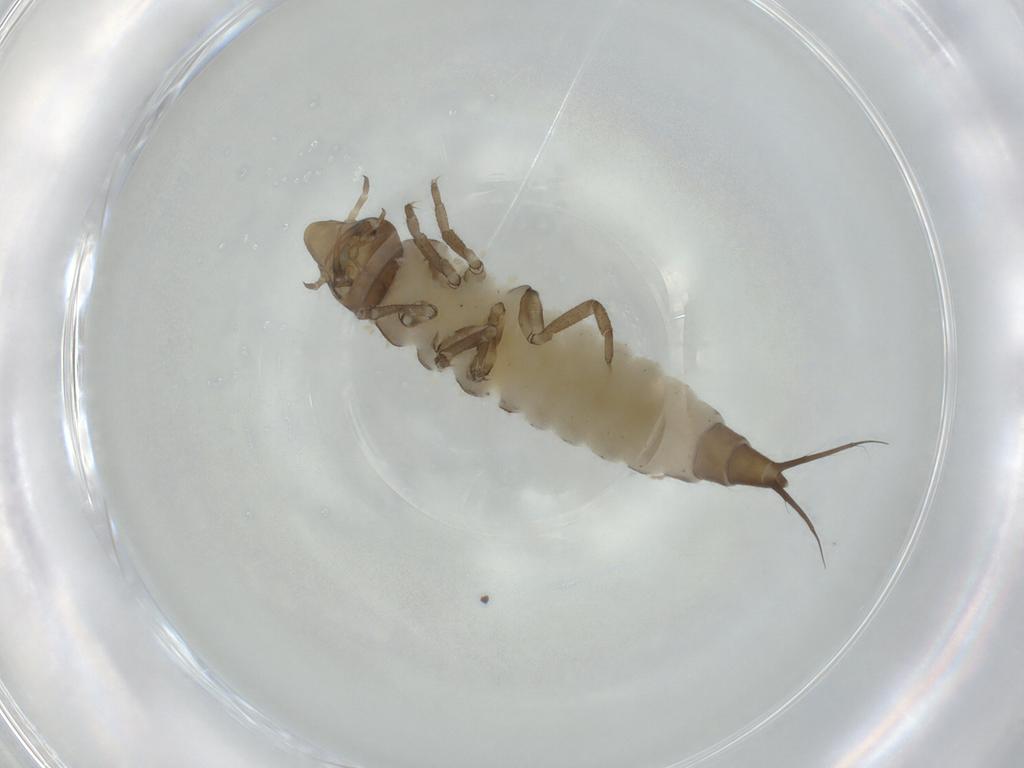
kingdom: Animalia
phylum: Arthropoda
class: Insecta
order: Coleoptera
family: Dytiscidae
